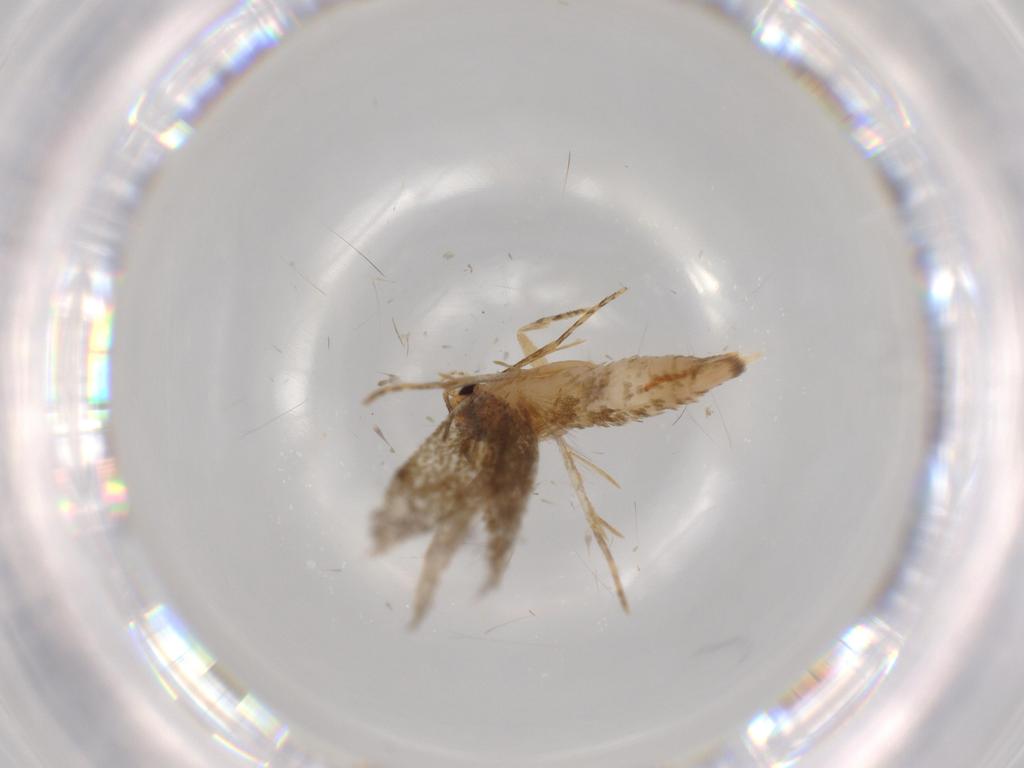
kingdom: Animalia
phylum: Arthropoda
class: Insecta
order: Lepidoptera
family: Tineidae
